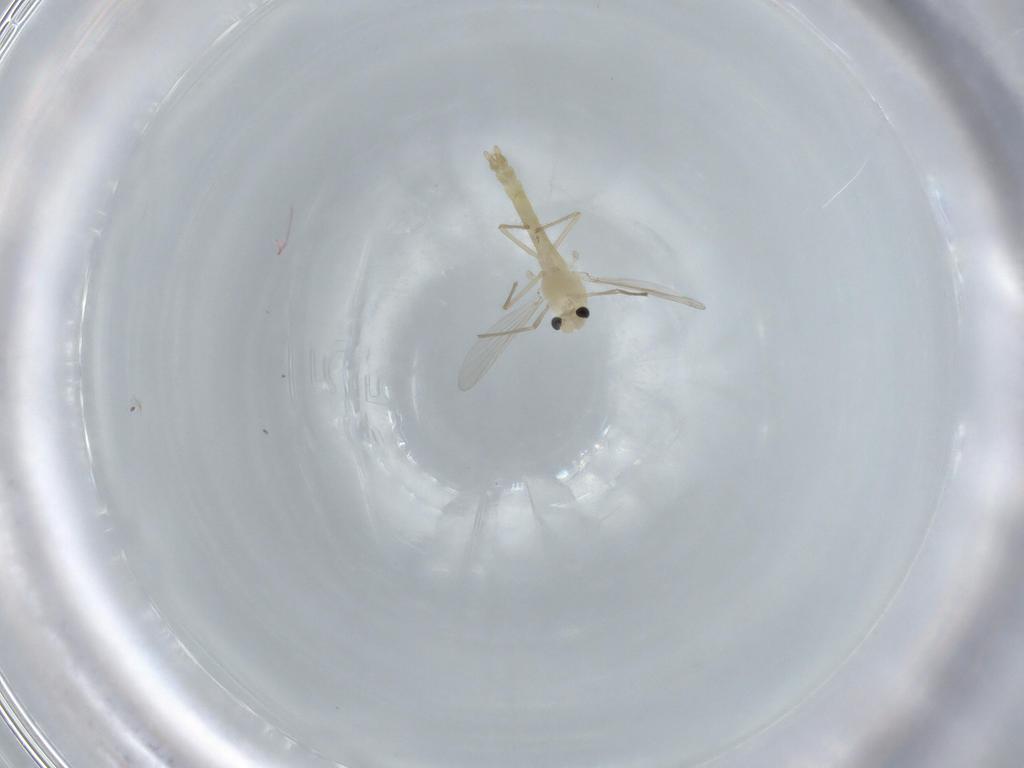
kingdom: Animalia
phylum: Arthropoda
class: Insecta
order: Diptera
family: Chironomidae
